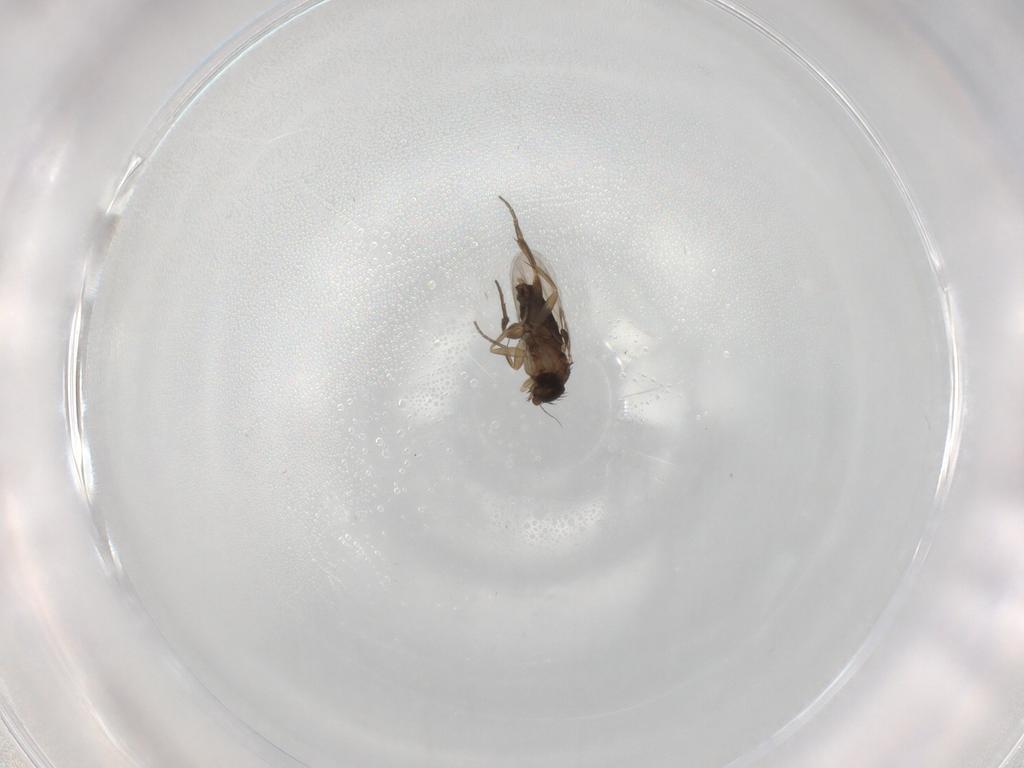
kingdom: Animalia
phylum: Arthropoda
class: Insecta
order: Diptera
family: Phoridae
